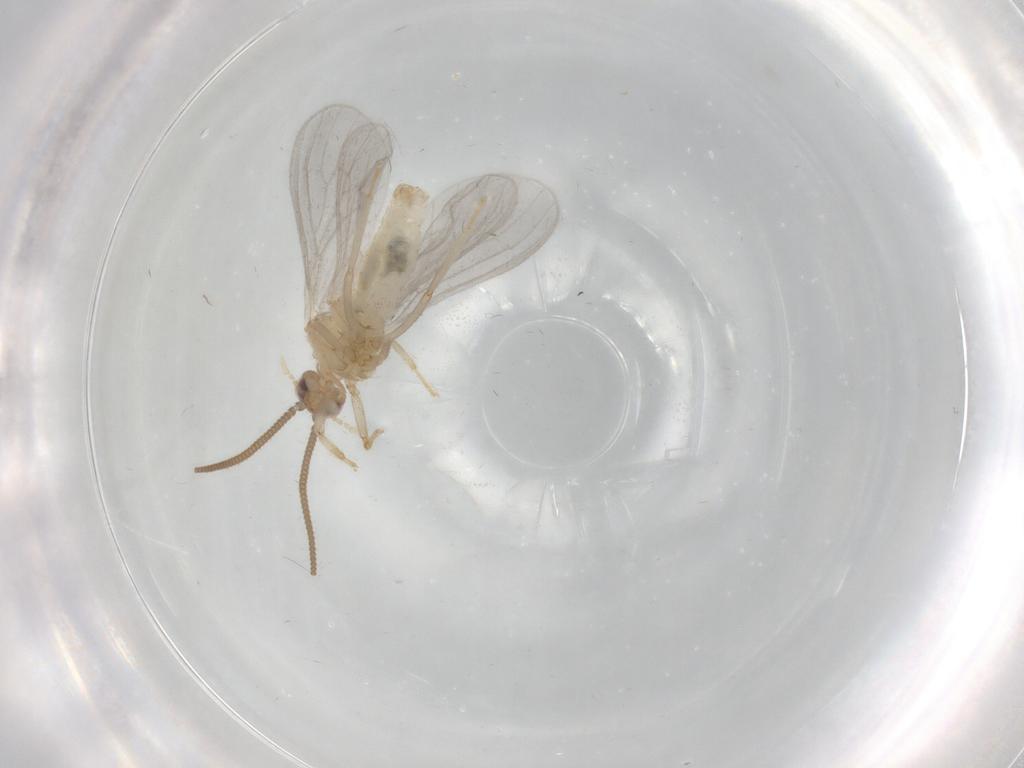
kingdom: Animalia
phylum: Arthropoda
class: Insecta
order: Neuroptera
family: Coniopterygidae
